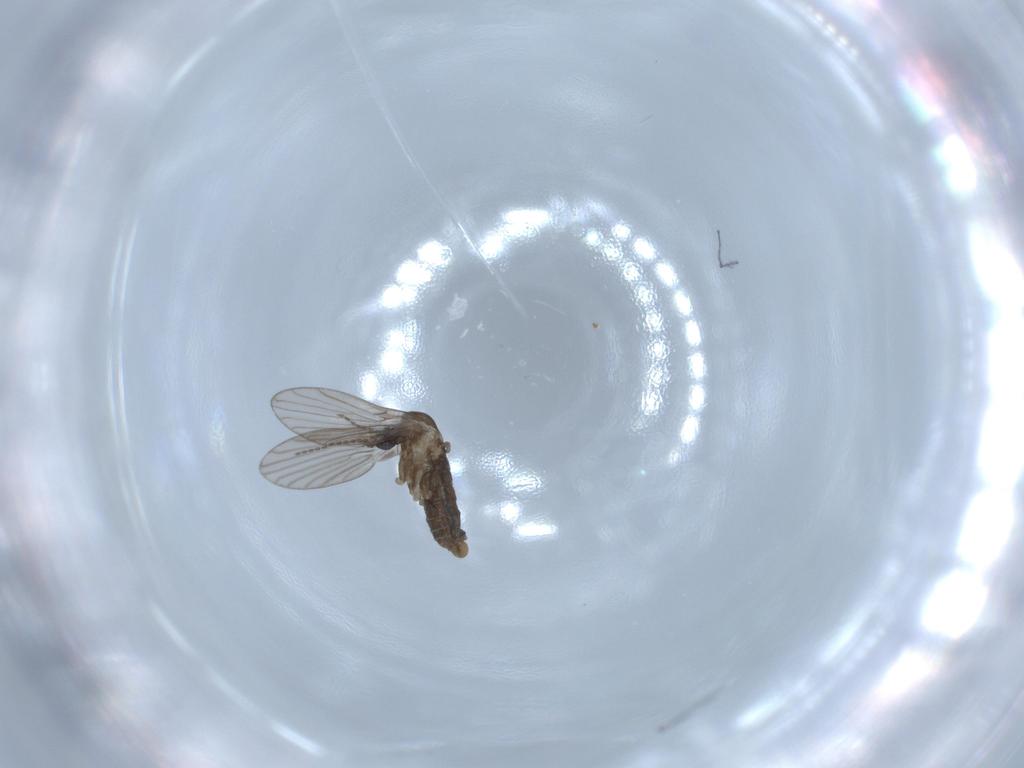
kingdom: Animalia
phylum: Arthropoda
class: Insecta
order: Diptera
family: Sciaridae
